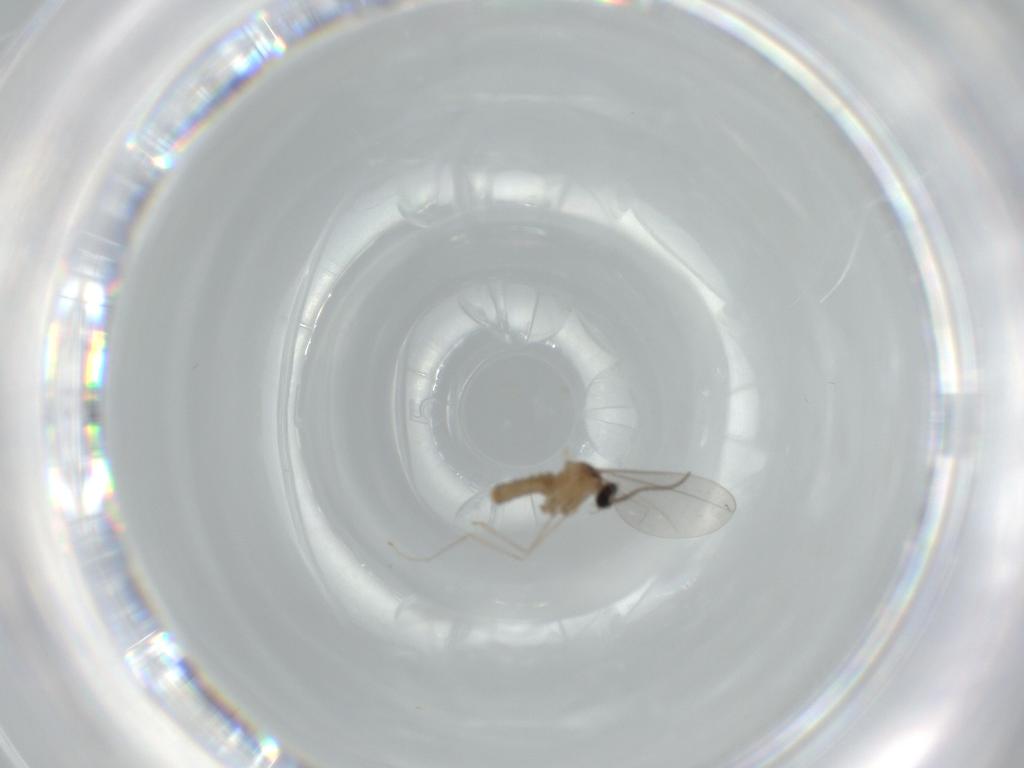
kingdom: Animalia
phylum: Arthropoda
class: Insecta
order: Diptera
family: Cecidomyiidae
